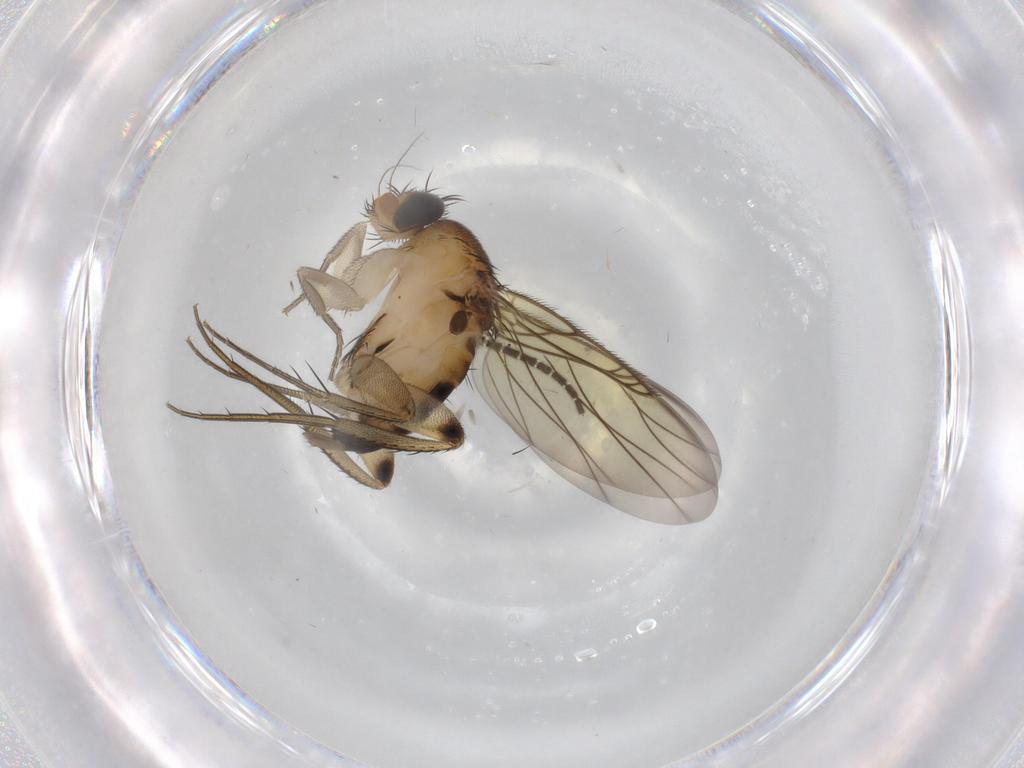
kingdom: Animalia
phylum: Arthropoda
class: Insecta
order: Diptera
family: Phoridae
